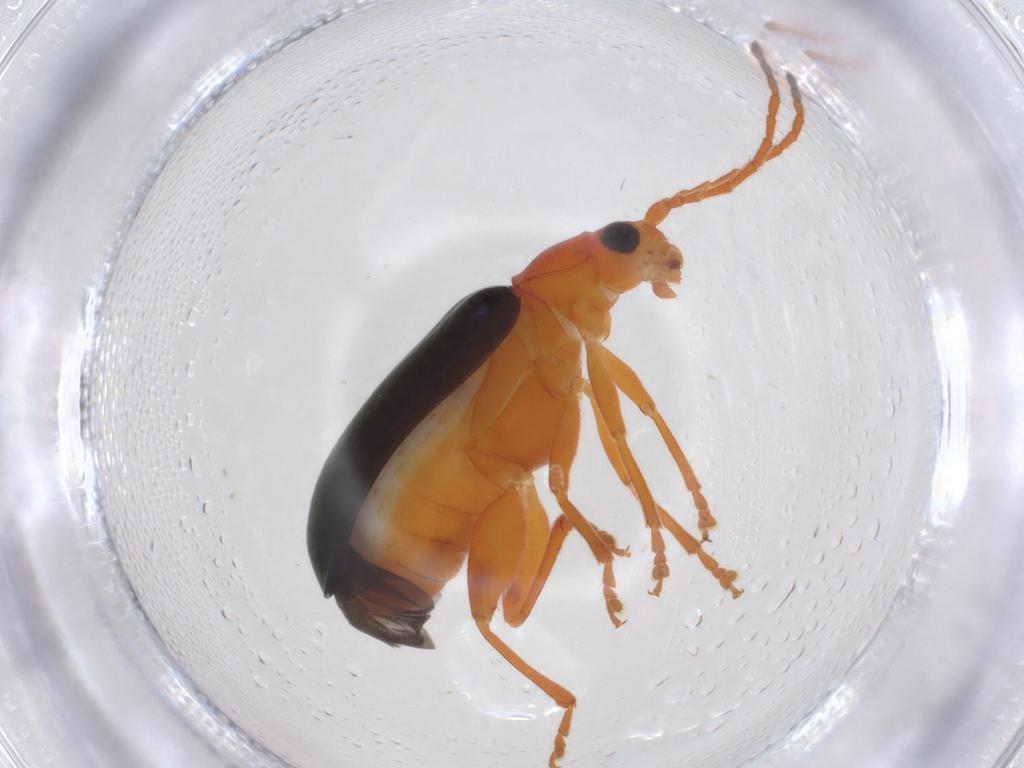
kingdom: Animalia
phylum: Arthropoda
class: Insecta
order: Coleoptera
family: Chrysomelidae
